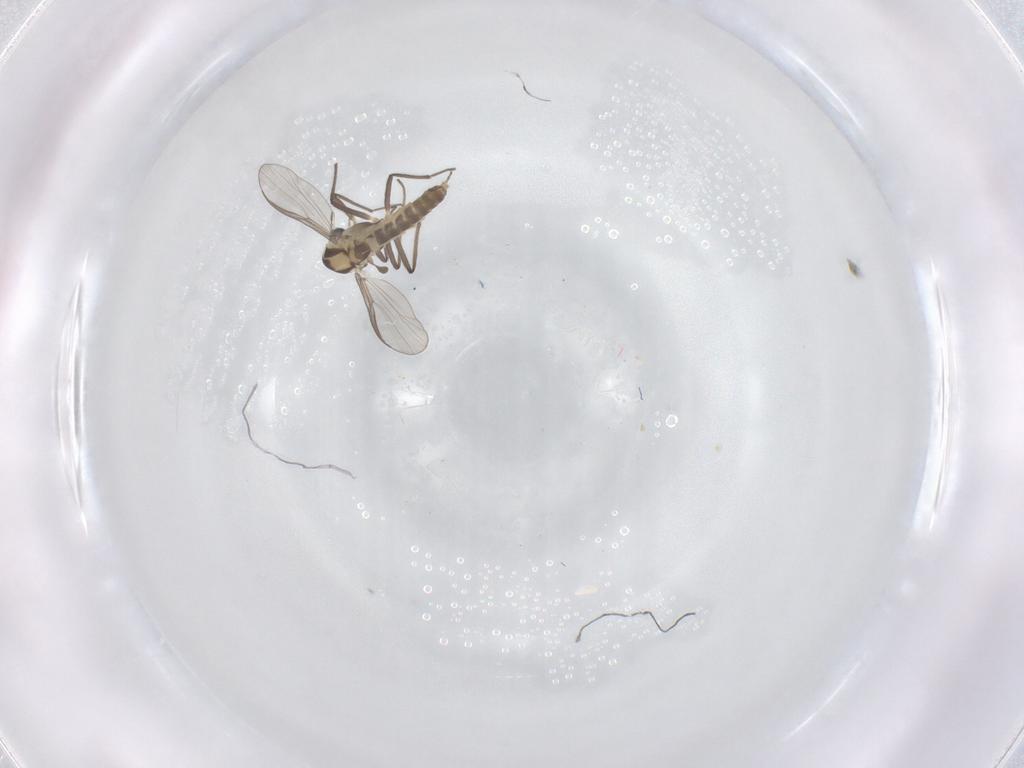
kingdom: Animalia
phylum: Arthropoda
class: Insecta
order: Diptera
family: Chironomidae
